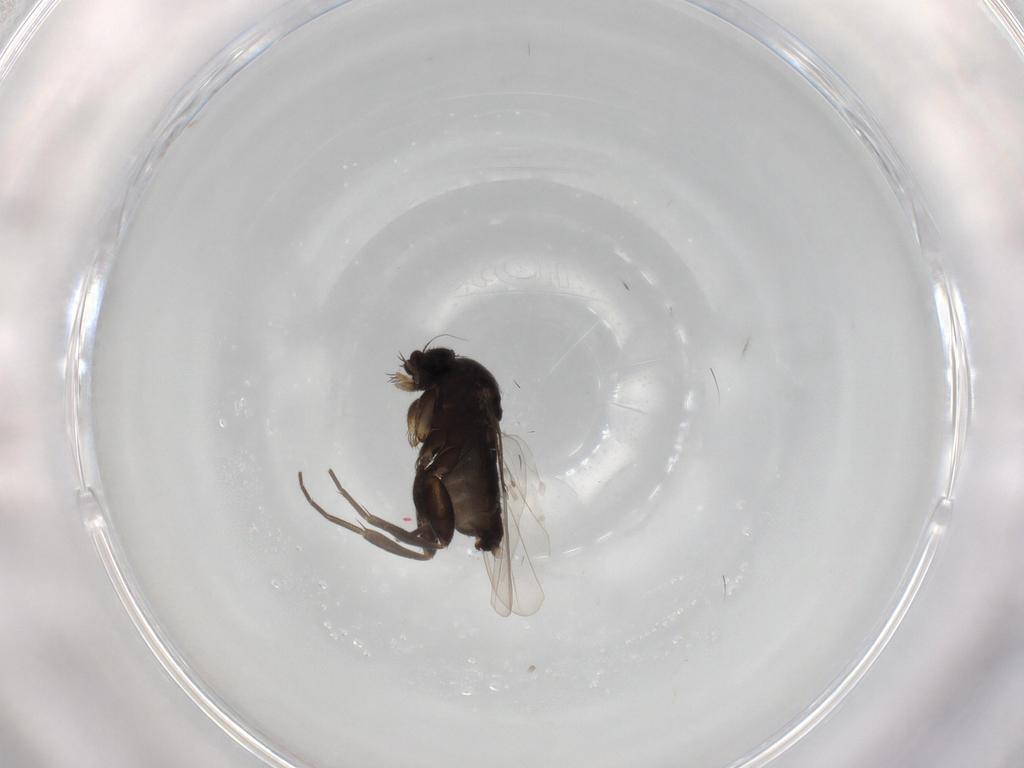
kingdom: Animalia
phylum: Arthropoda
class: Insecta
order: Diptera
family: Phoridae
